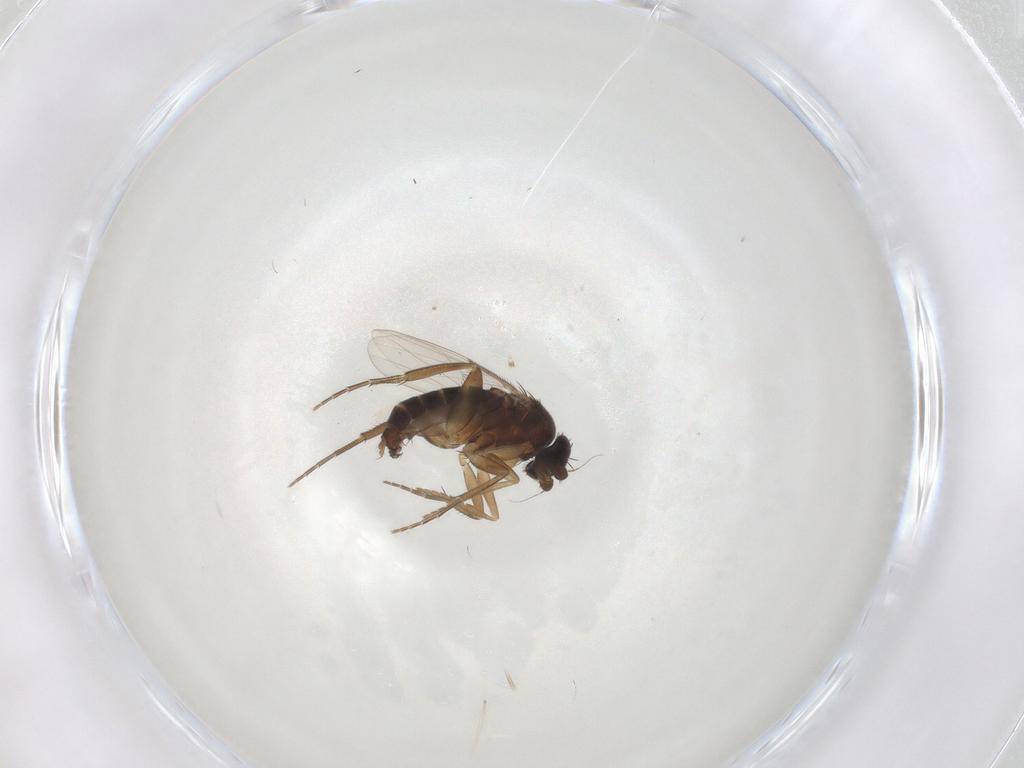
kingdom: Animalia
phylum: Arthropoda
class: Insecta
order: Diptera
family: Phoridae
